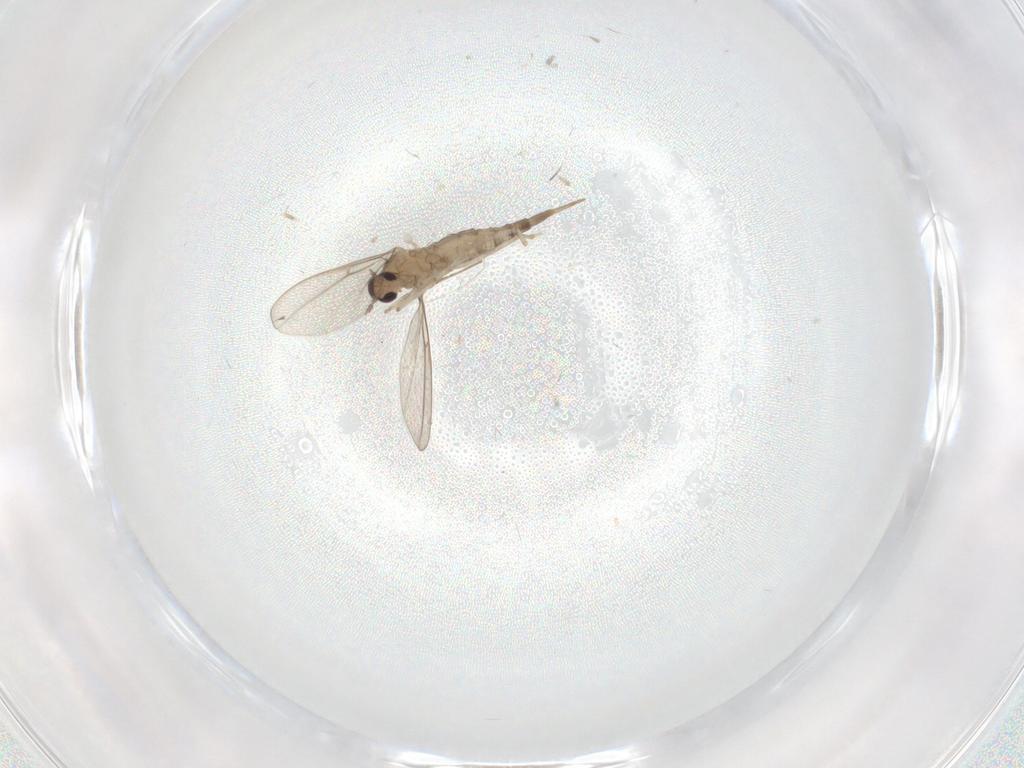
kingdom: Animalia
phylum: Arthropoda
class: Insecta
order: Diptera
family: Cecidomyiidae
